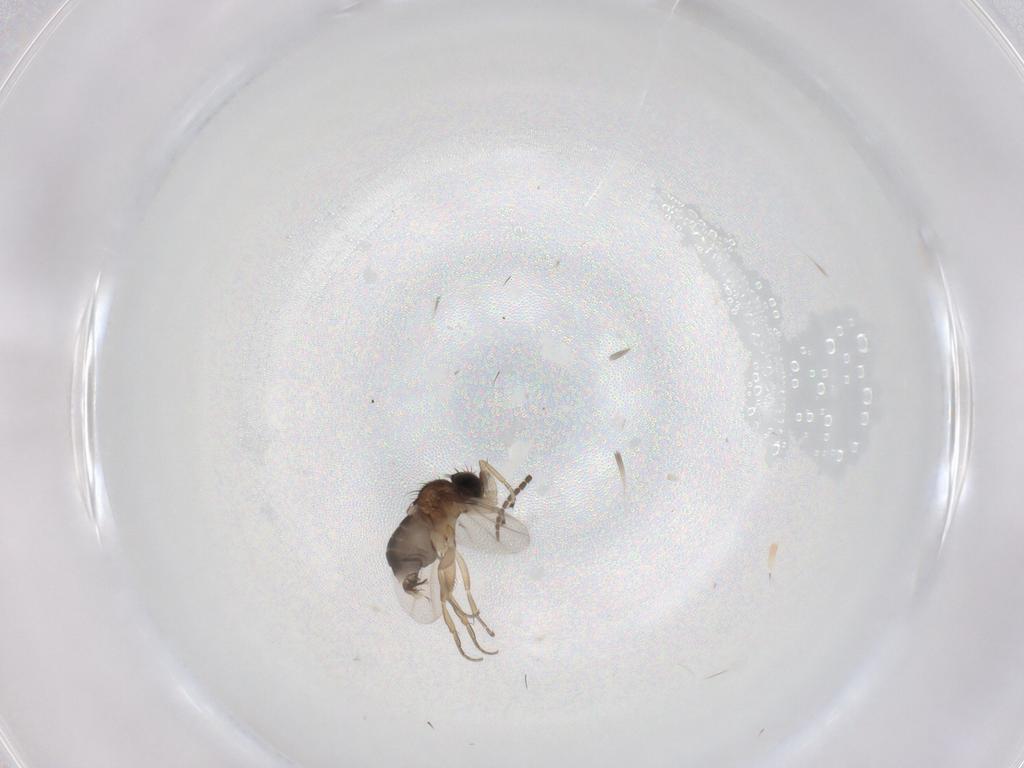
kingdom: Animalia
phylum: Arthropoda
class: Insecta
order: Diptera
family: Phoridae
